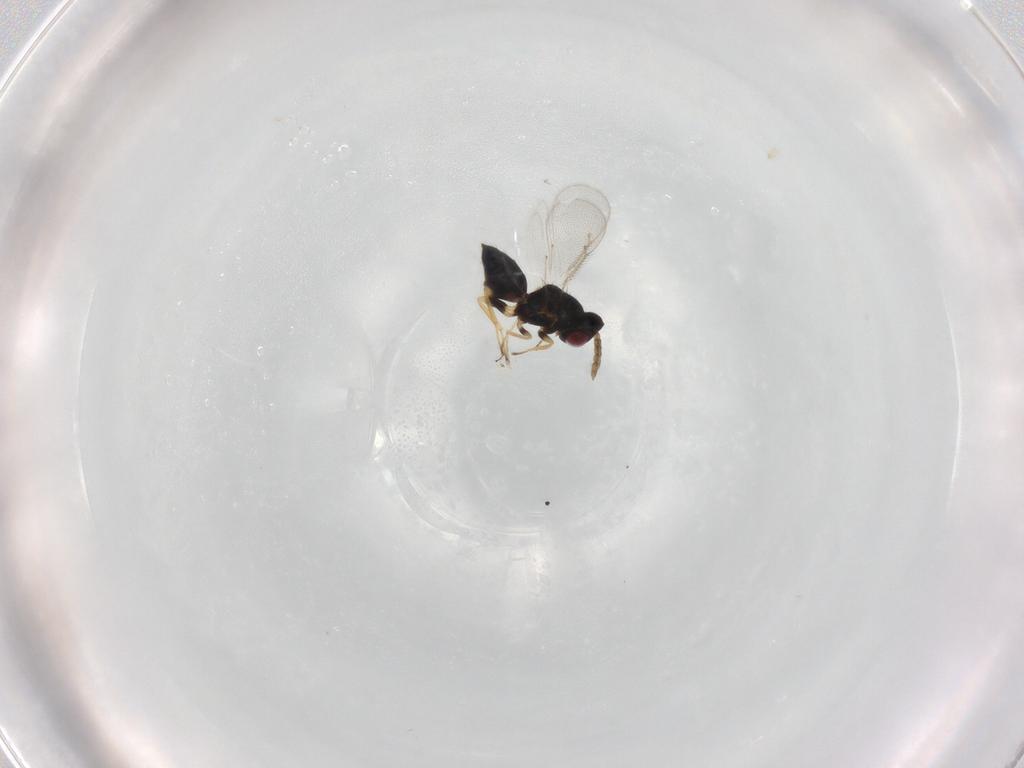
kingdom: Animalia
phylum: Arthropoda
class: Insecta
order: Hymenoptera
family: Eulophidae
